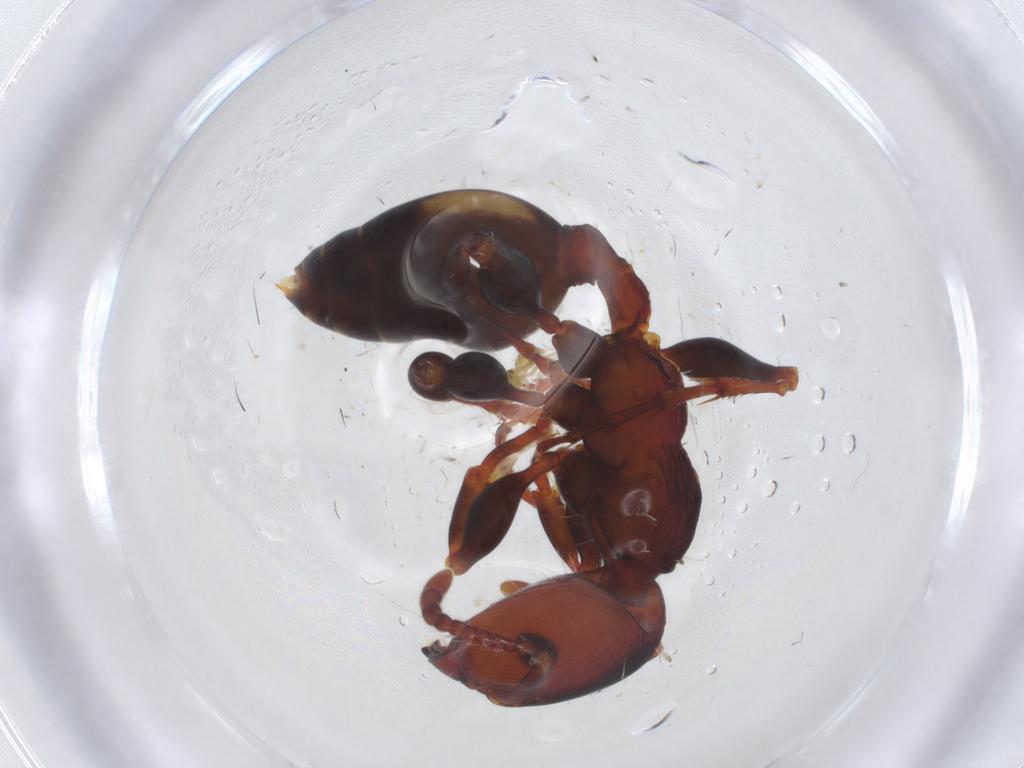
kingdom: Animalia
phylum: Arthropoda
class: Insecta
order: Hymenoptera
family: Formicidae
